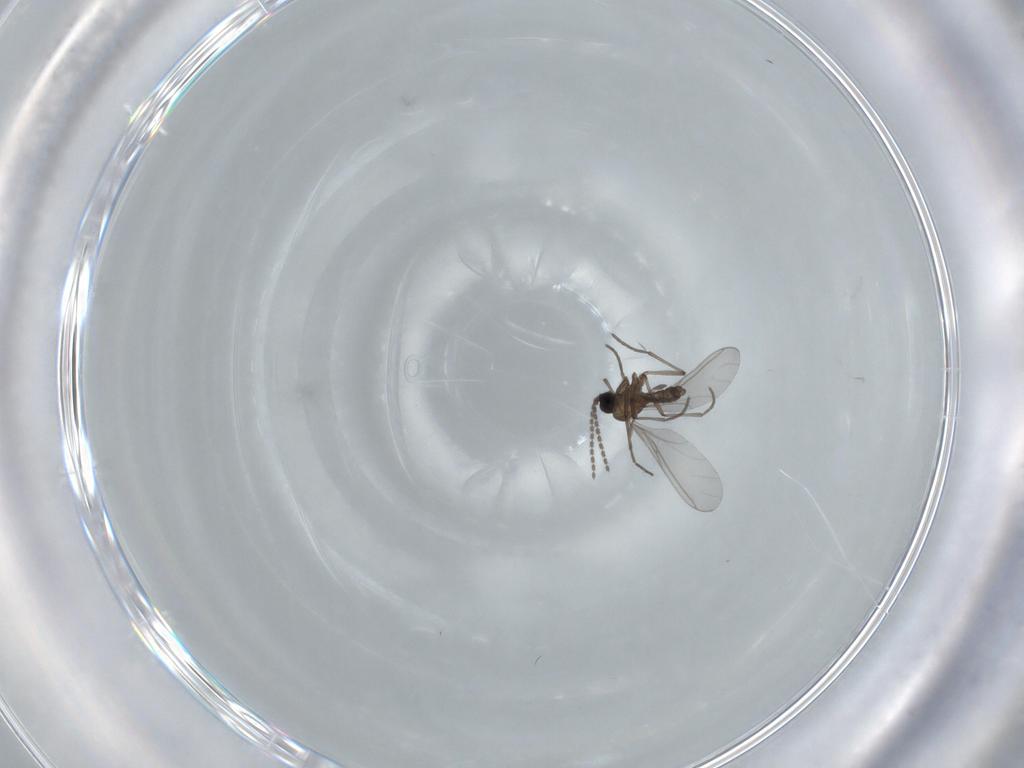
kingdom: Animalia
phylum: Arthropoda
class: Insecta
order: Diptera
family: Sciaridae
